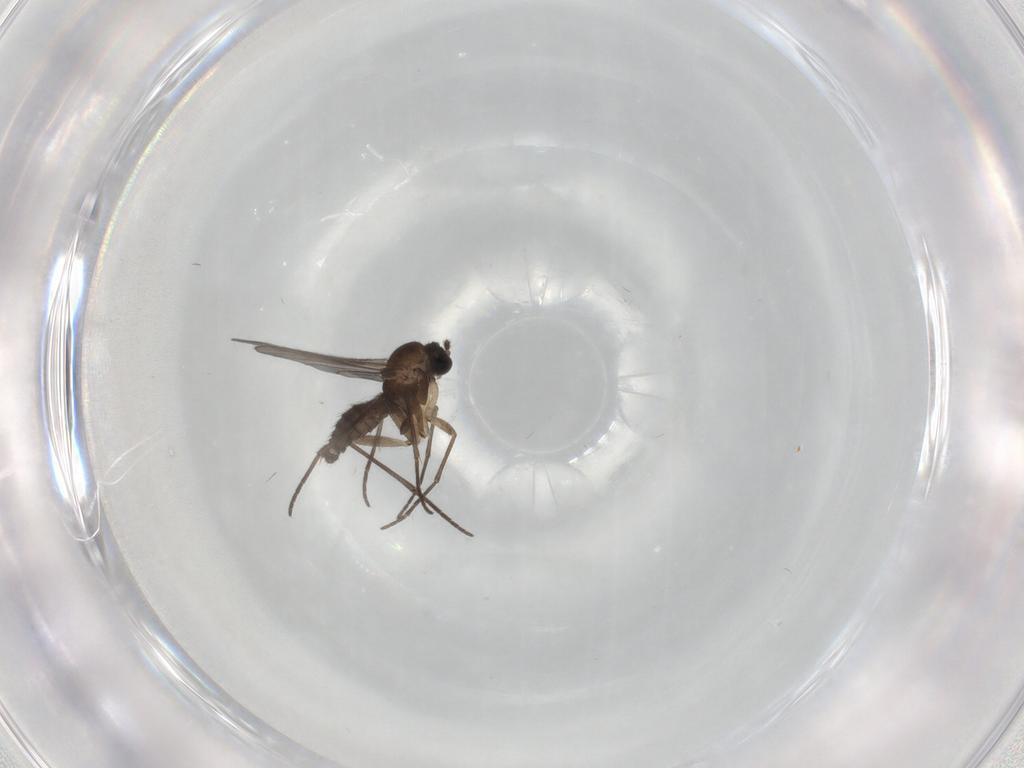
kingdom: Animalia
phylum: Arthropoda
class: Insecta
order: Diptera
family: Sciaridae
